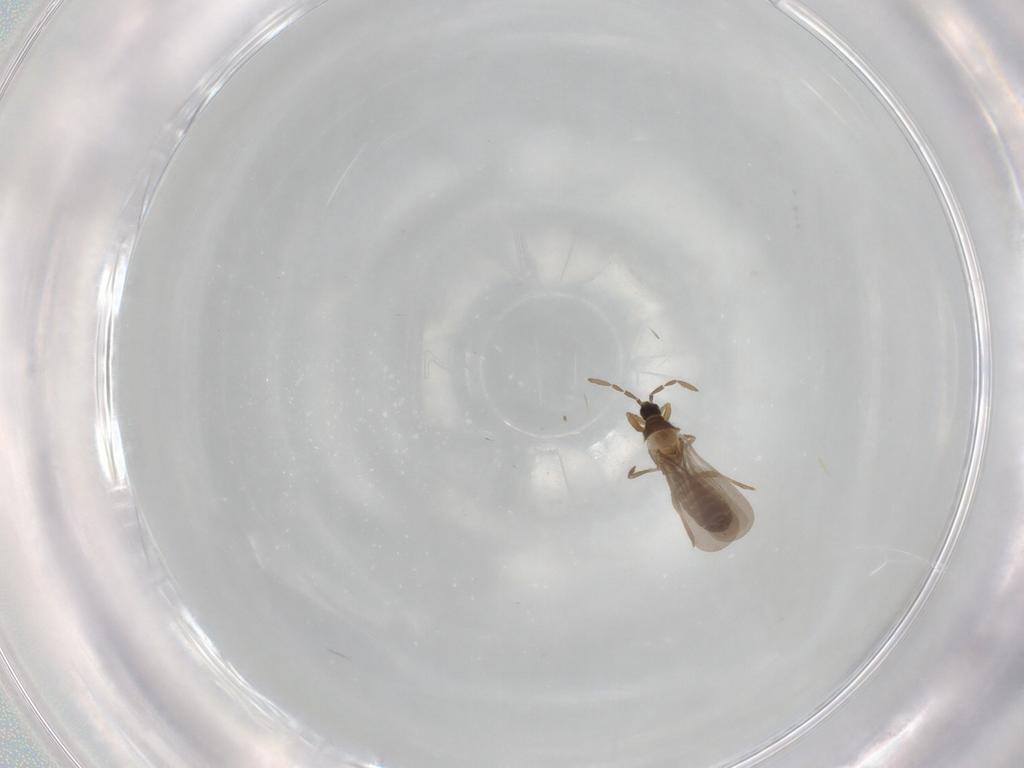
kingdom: Animalia
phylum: Arthropoda
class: Insecta
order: Hemiptera
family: Enicocephalidae
